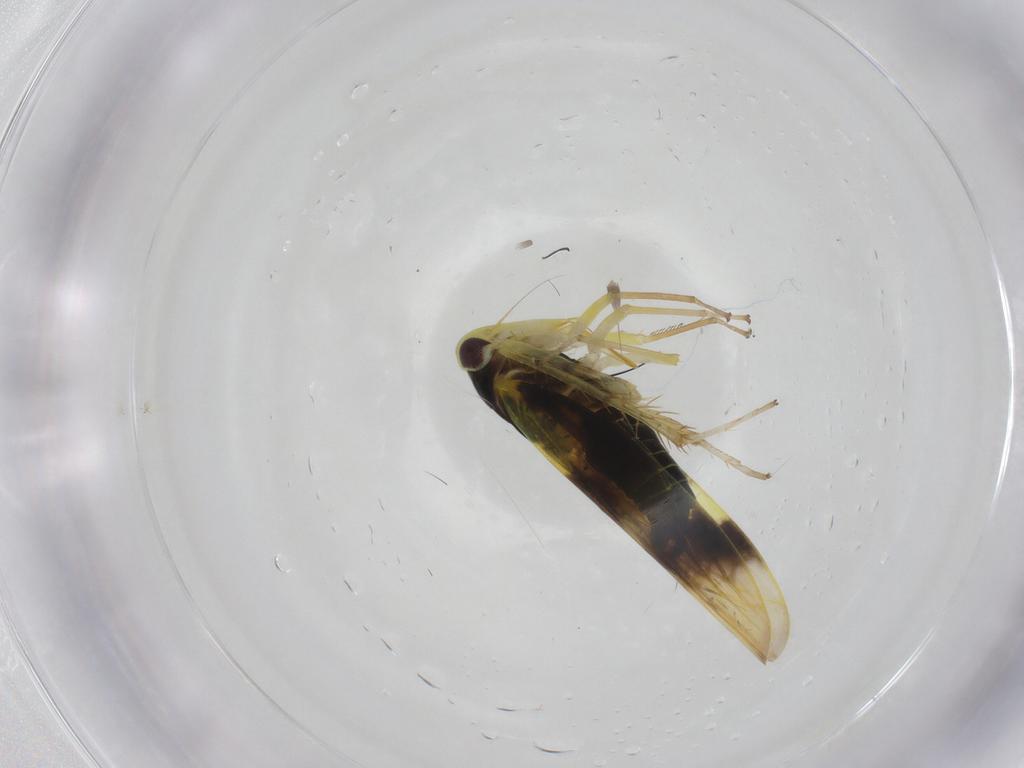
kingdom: Animalia
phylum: Arthropoda
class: Insecta
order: Hemiptera
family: Cicadellidae
